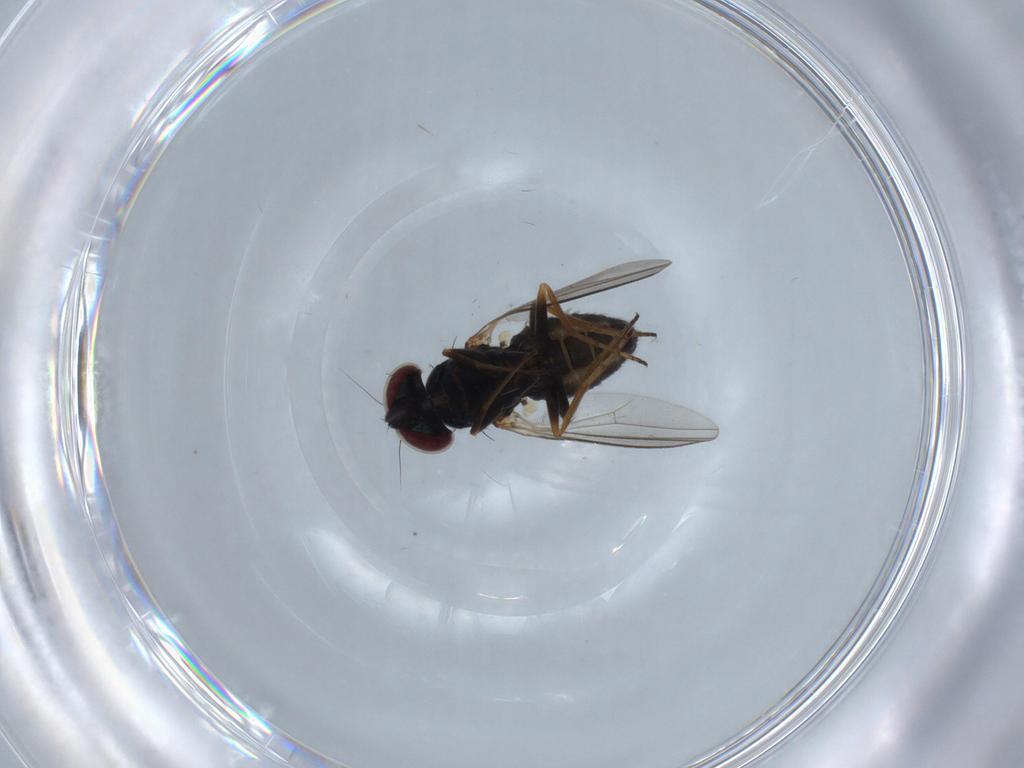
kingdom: Animalia
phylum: Arthropoda
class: Insecta
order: Diptera
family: Dolichopodidae
